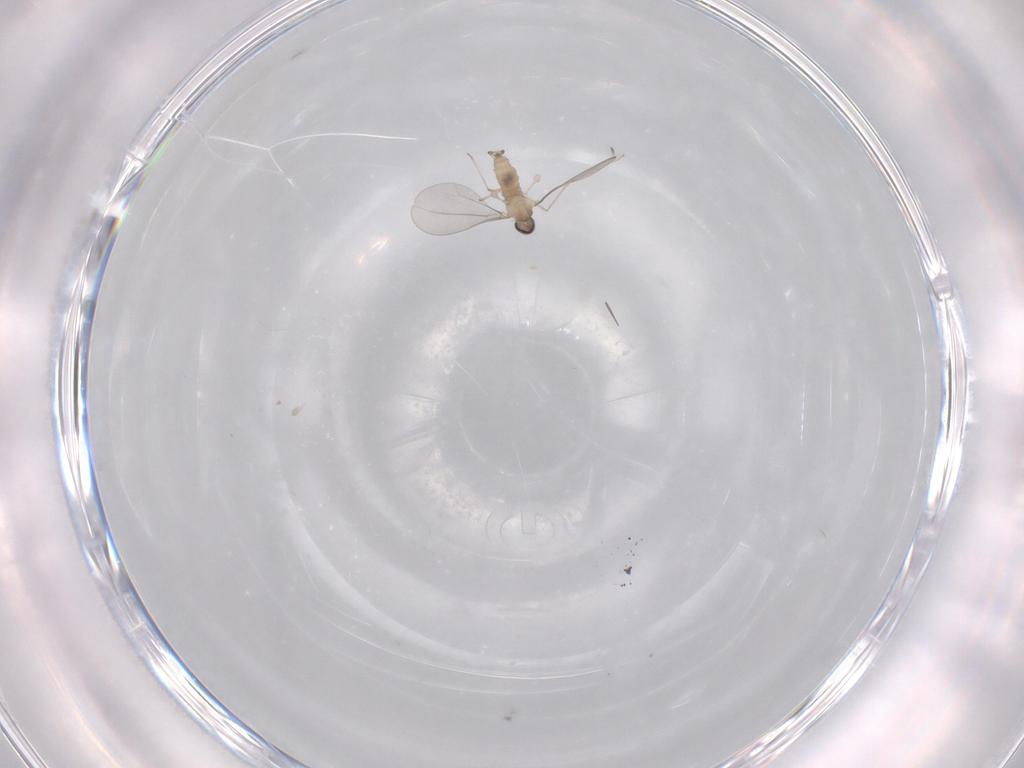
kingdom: Animalia
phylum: Arthropoda
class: Insecta
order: Diptera
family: Cecidomyiidae
